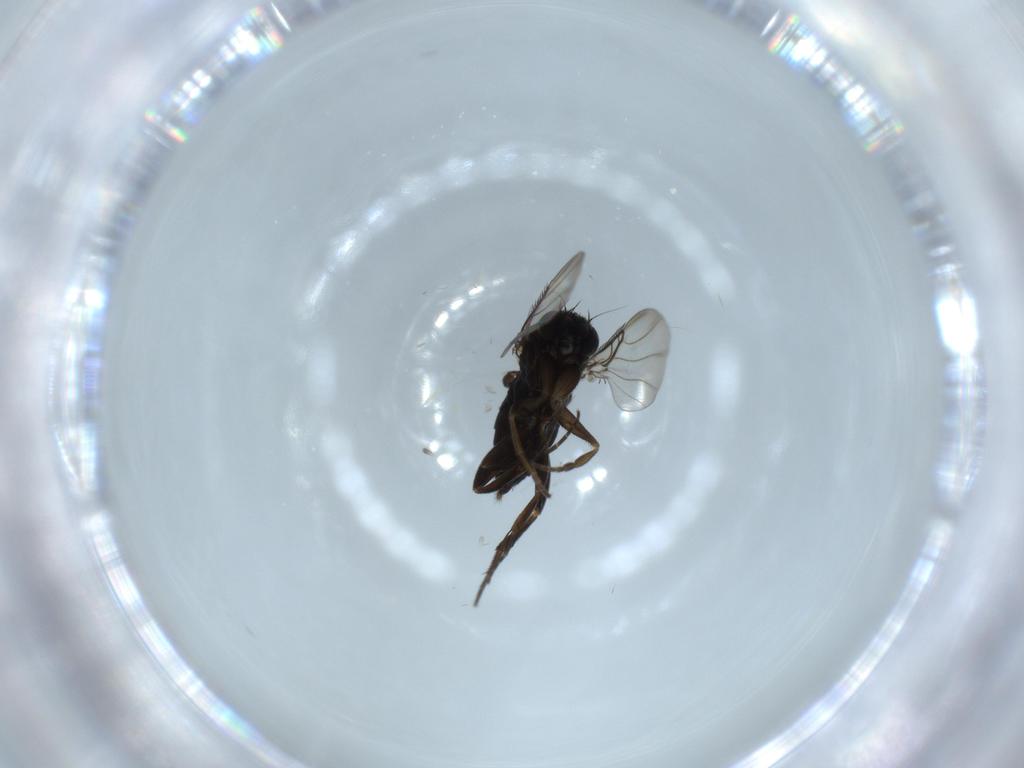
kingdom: Animalia
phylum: Arthropoda
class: Insecta
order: Diptera
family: Phoridae
